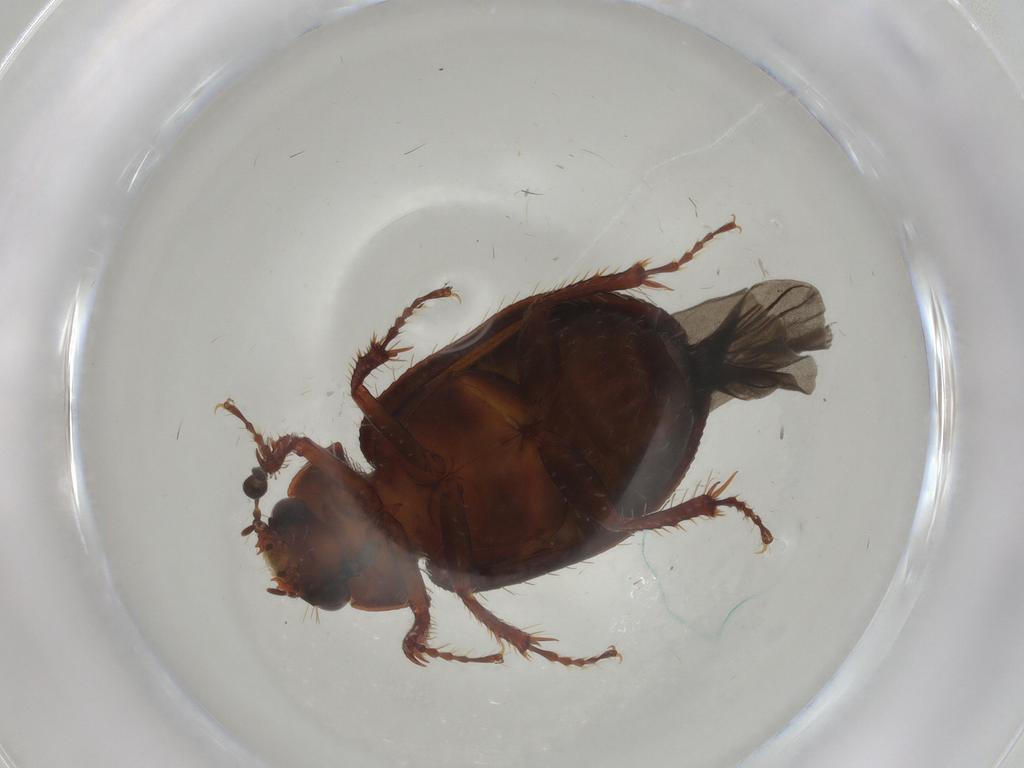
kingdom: Animalia
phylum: Arthropoda
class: Insecta
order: Coleoptera
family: Hybosoridae
